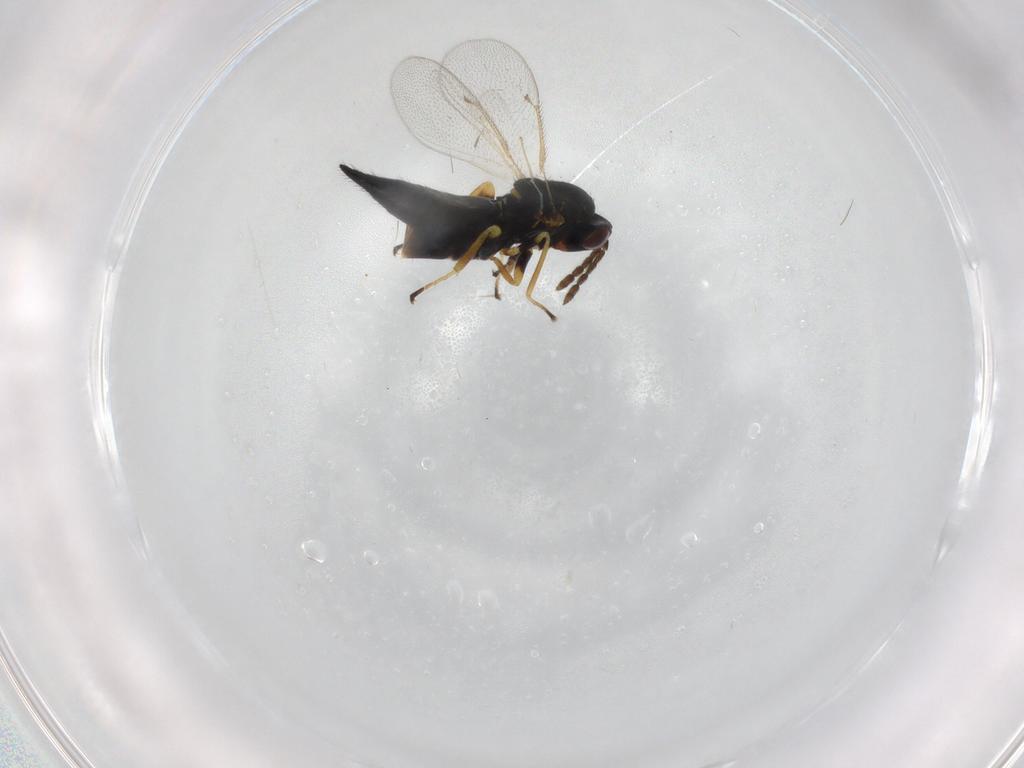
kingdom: Animalia
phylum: Arthropoda
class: Insecta
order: Hymenoptera
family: Eulophidae
